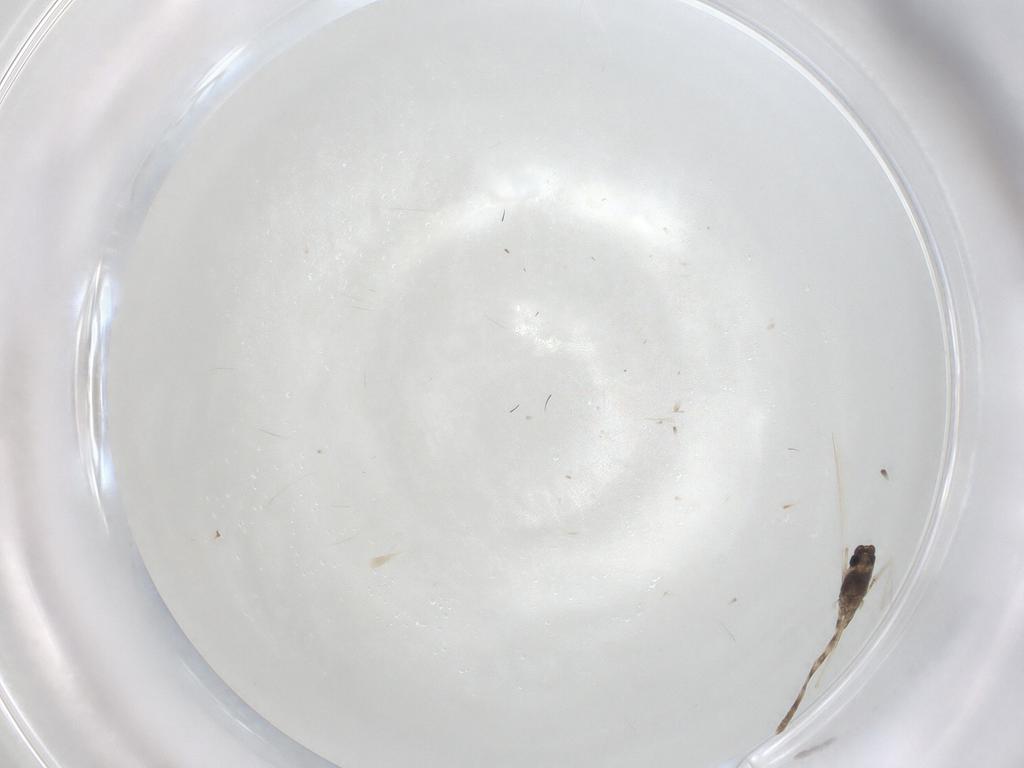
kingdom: Animalia
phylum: Arthropoda
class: Insecta
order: Diptera
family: Chironomidae
